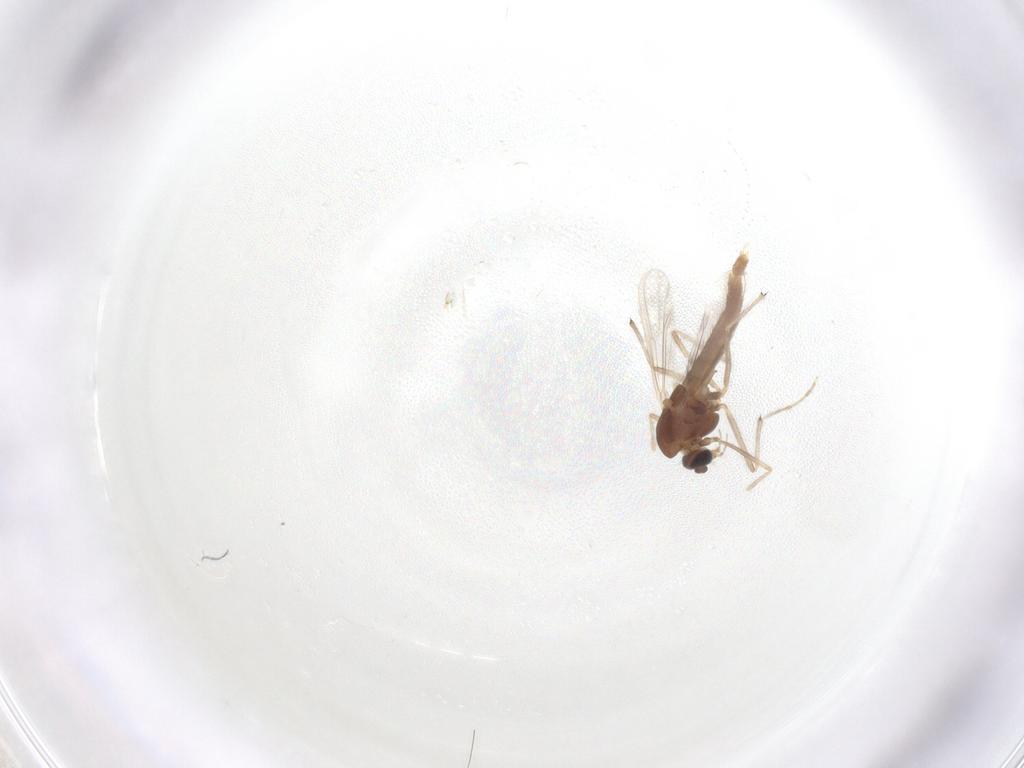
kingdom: Animalia
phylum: Arthropoda
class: Insecta
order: Diptera
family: Chironomidae
